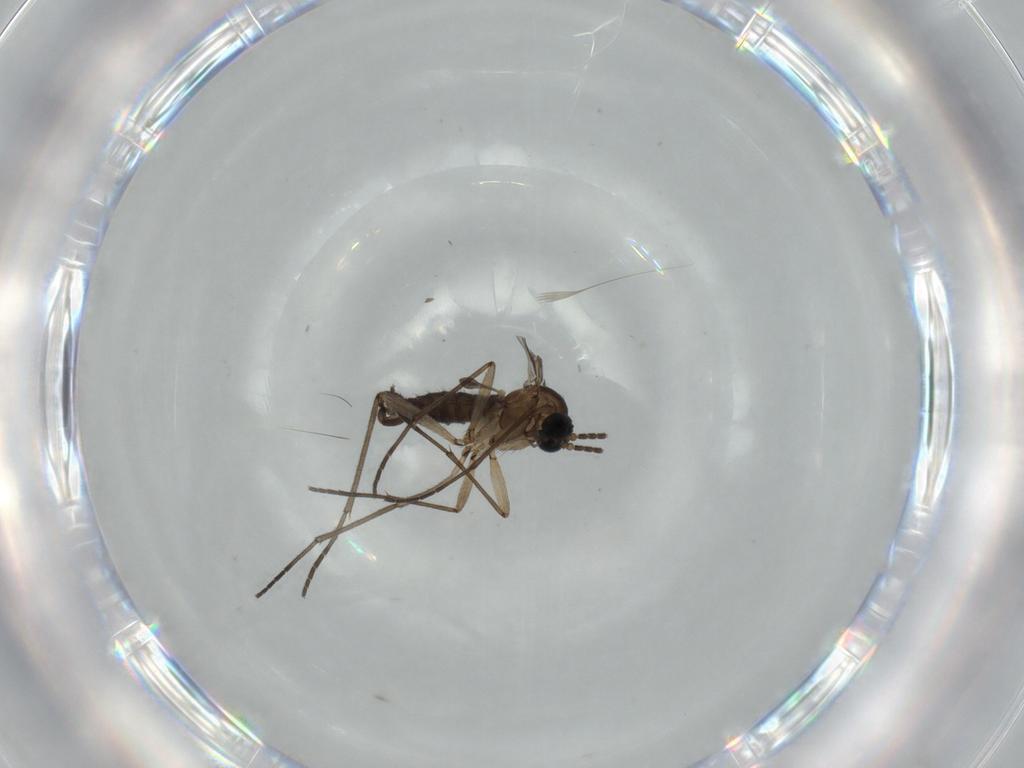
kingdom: Animalia
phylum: Arthropoda
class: Insecta
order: Diptera
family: Sciaridae
